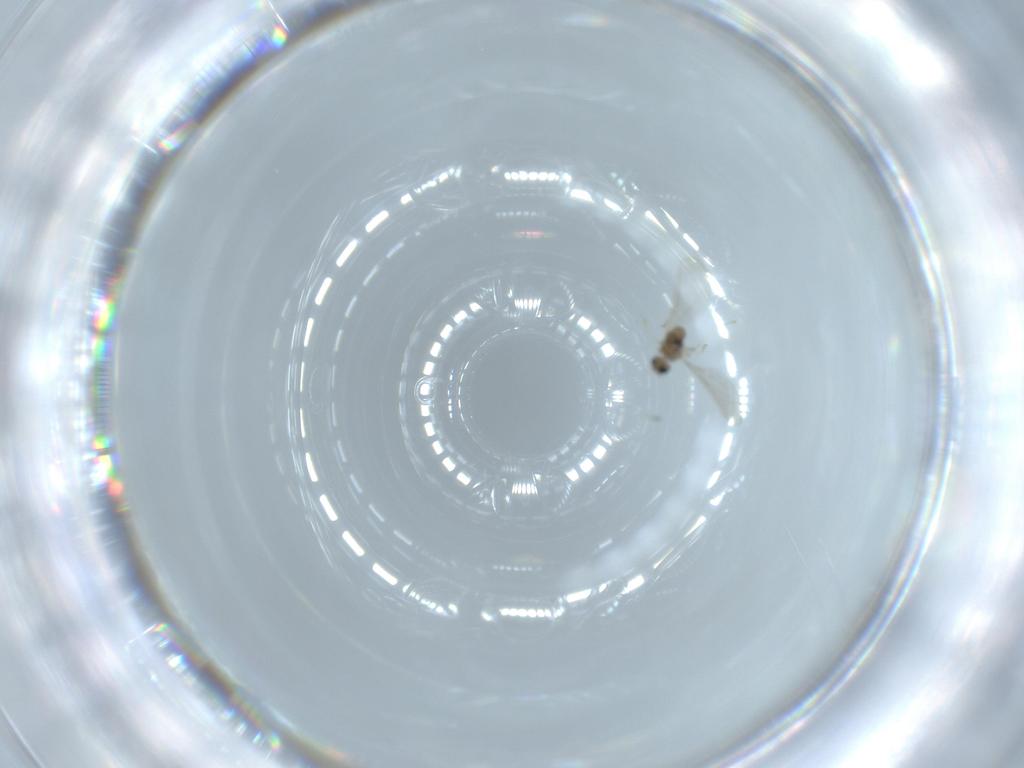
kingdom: Animalia
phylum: Arthropoda
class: Insecta
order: Diptera
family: Cecidomyiidae
